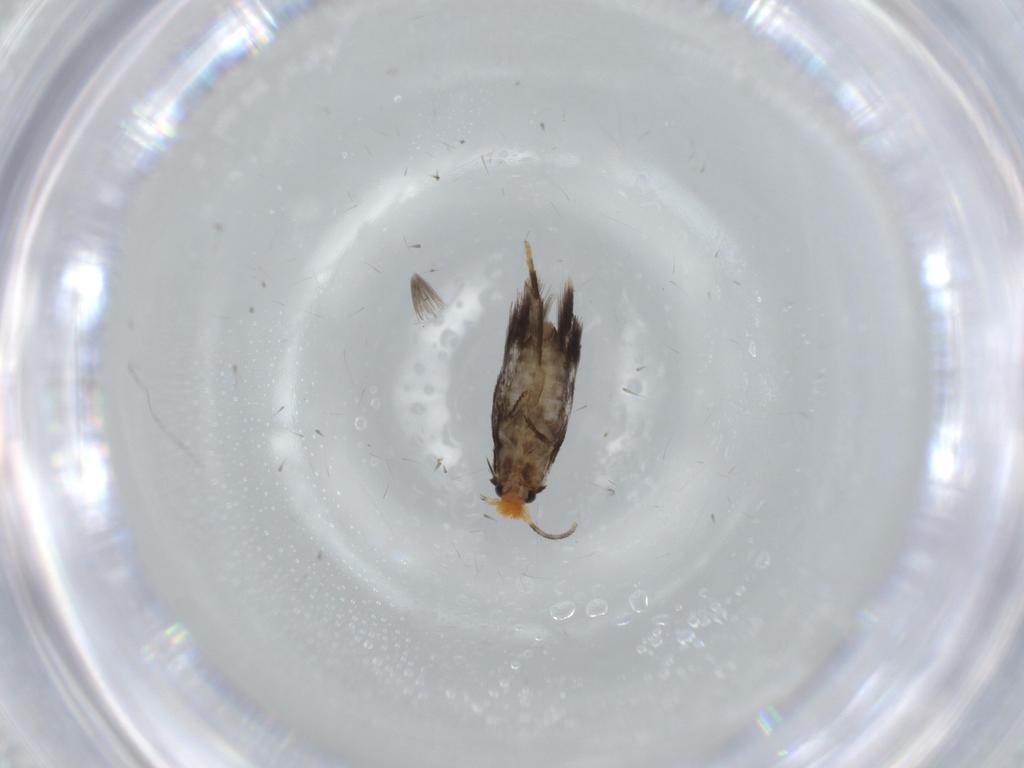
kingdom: Animalia
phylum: Arthropoda
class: Insecta
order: Lepidoptera
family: Nepticulidae
